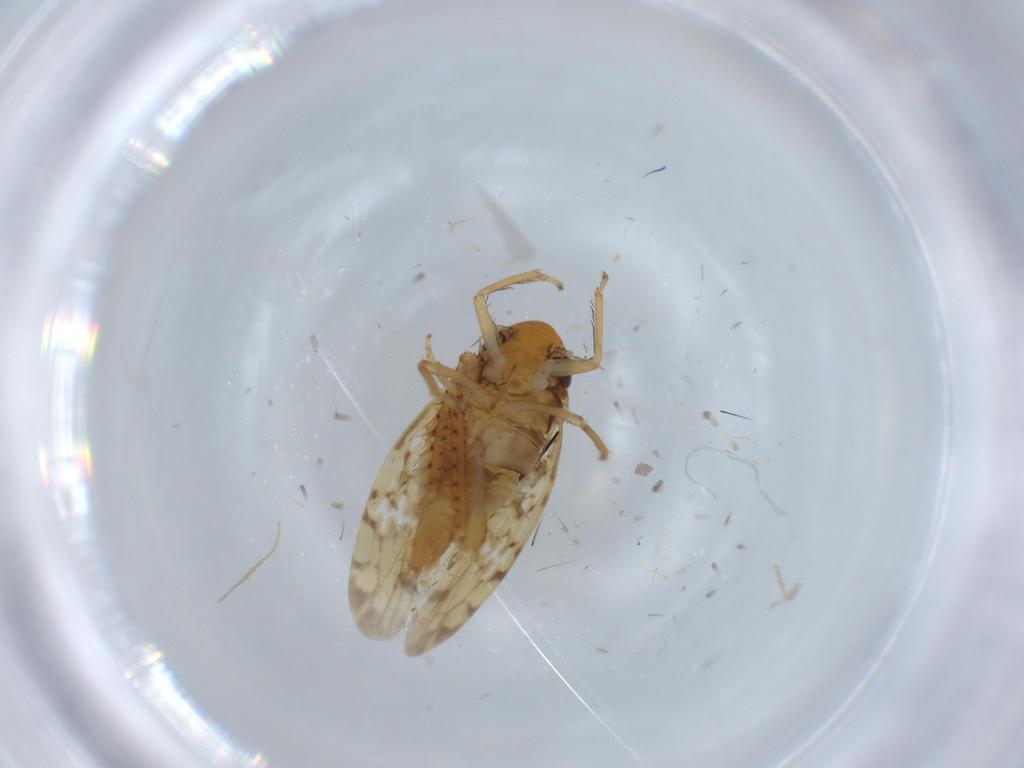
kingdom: Animalia
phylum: Arthropoda
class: Insecta
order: Hemiptera
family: Cicadellidae
